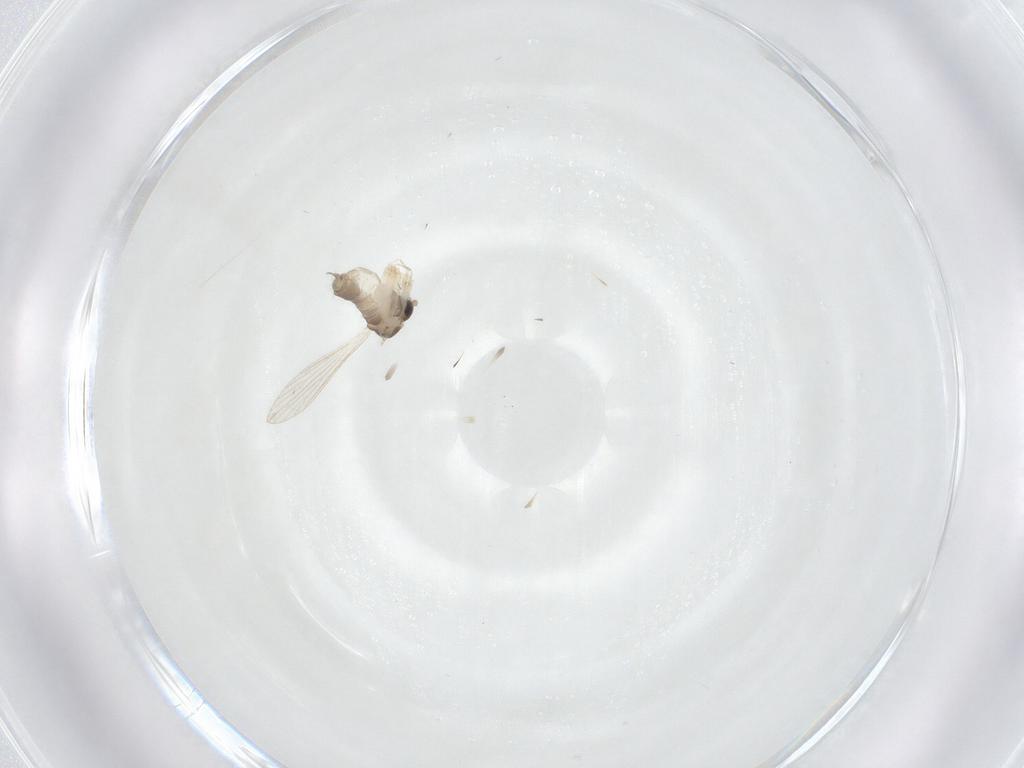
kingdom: Animalia
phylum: Arthropoda
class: Insecta
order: Diptera
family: Psychodidae
